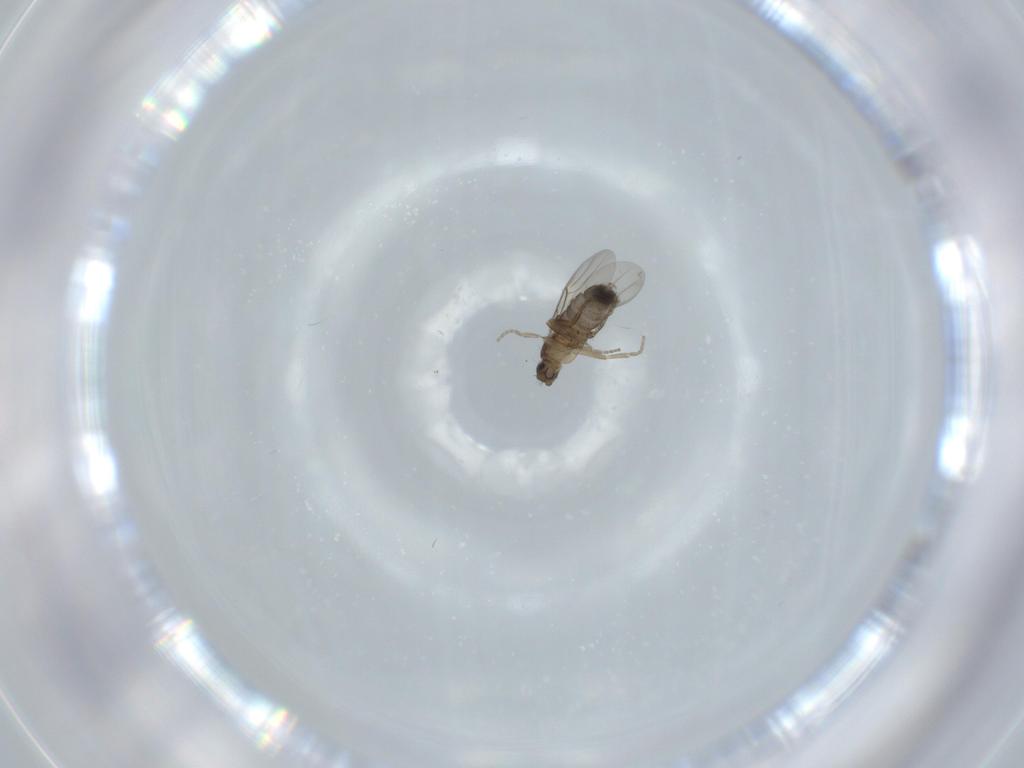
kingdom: Animalia
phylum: Arthropoda
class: Insecta
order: Diptera
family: Phoridae
